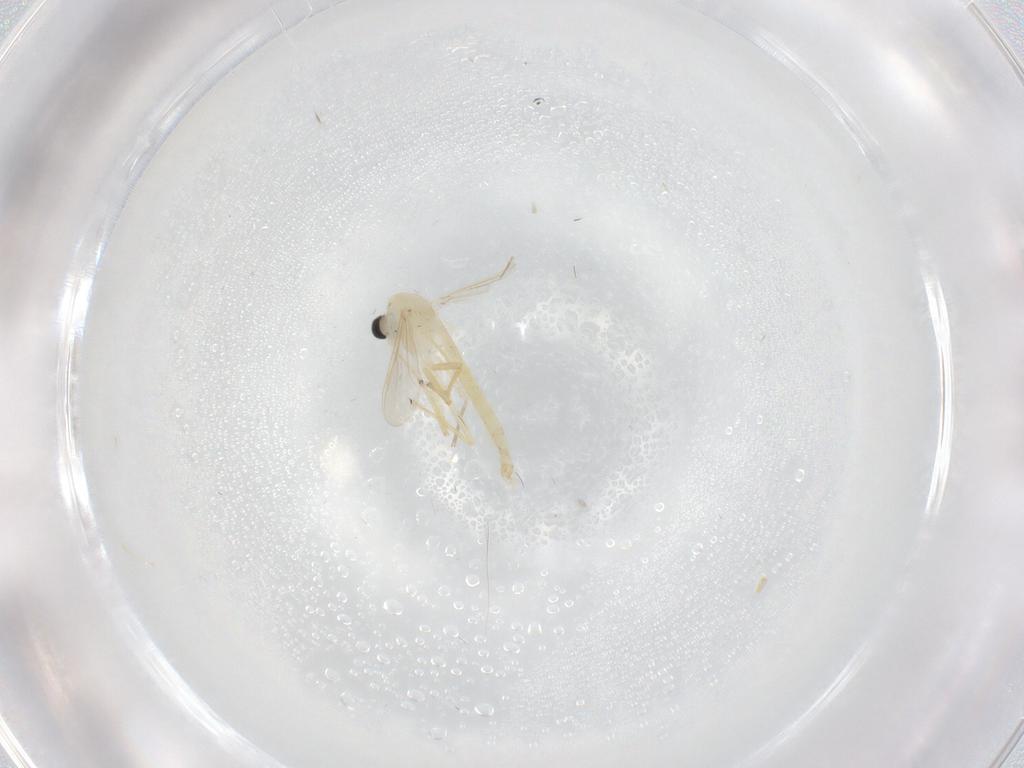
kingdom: Animalia
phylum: Arthropoda
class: Insecta
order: Diptera
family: Chironomidae
